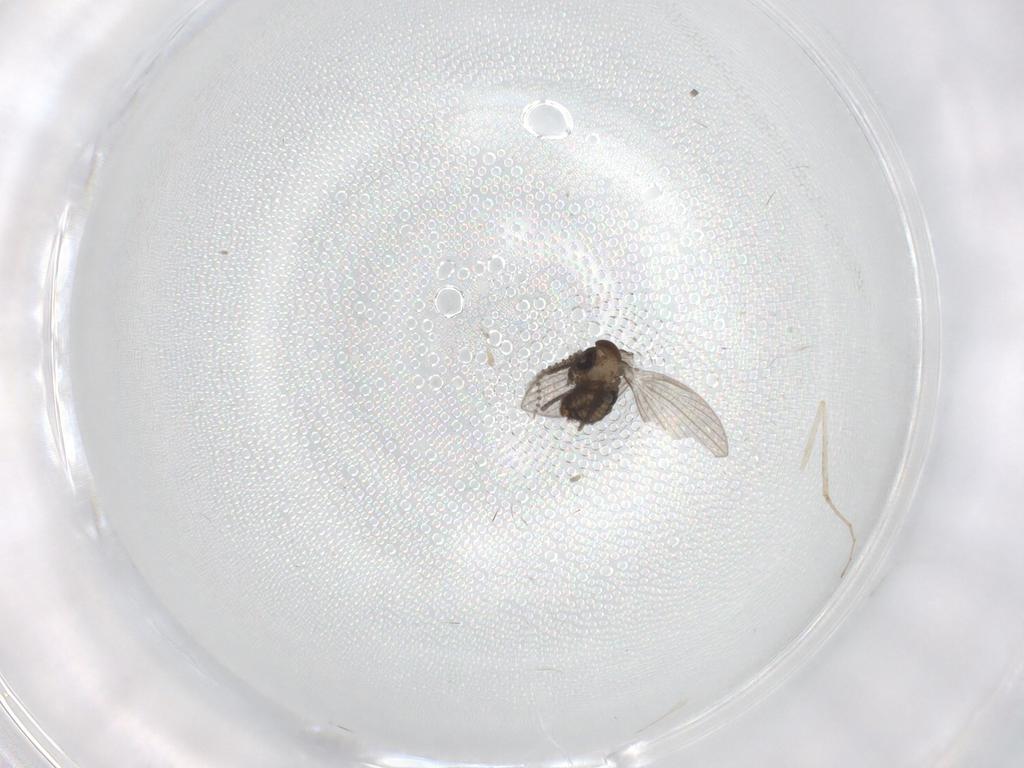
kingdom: Animalia
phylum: Arthropoda
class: Insecta
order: Diptera
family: Psychodidae
